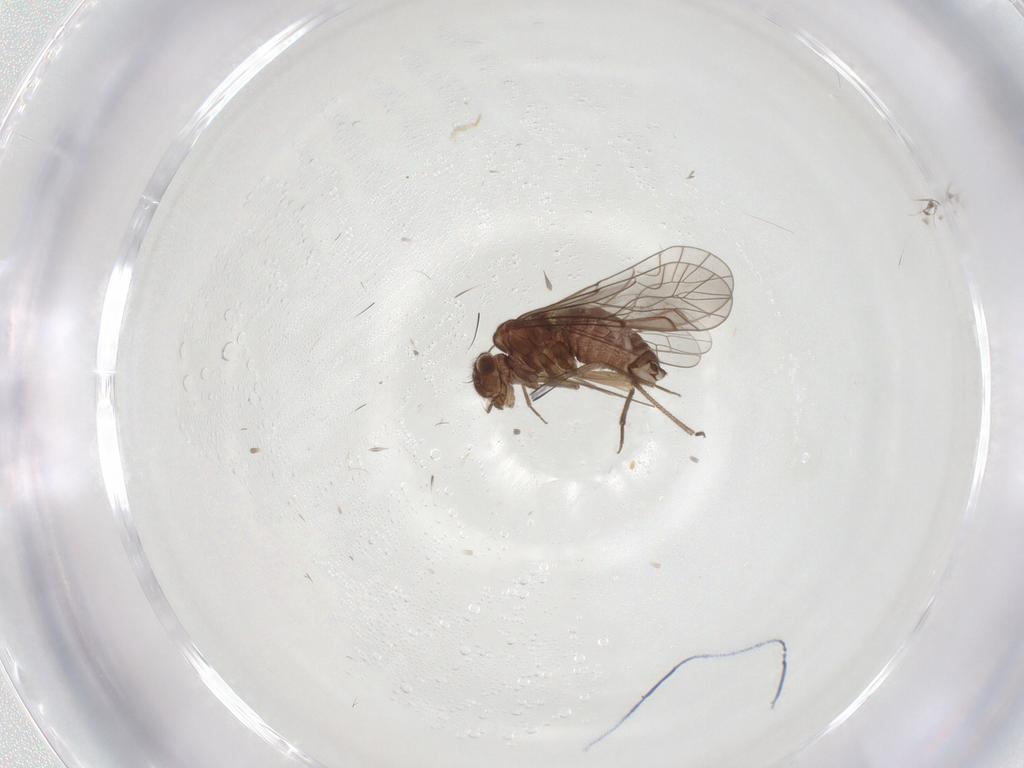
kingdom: Animalia
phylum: Arthropoda
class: Insecta
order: Psocodea
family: Lachesillidae
